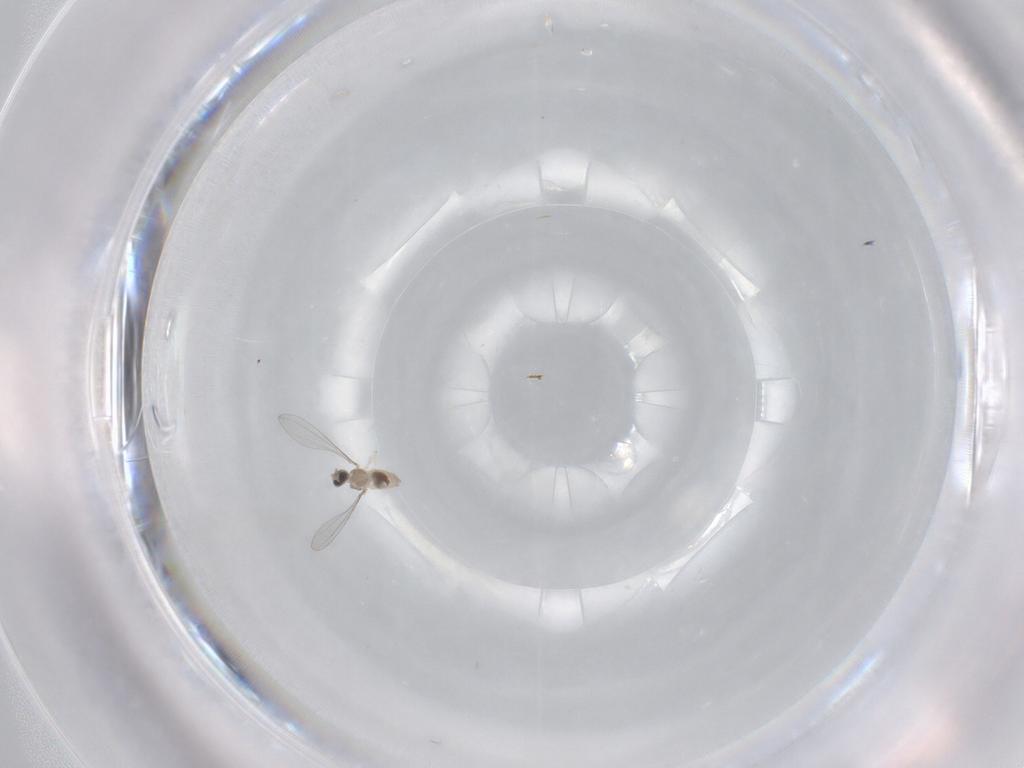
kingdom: Animalia
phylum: Arthropoda
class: Insecta
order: Diptera
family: Cecidomyiidae
